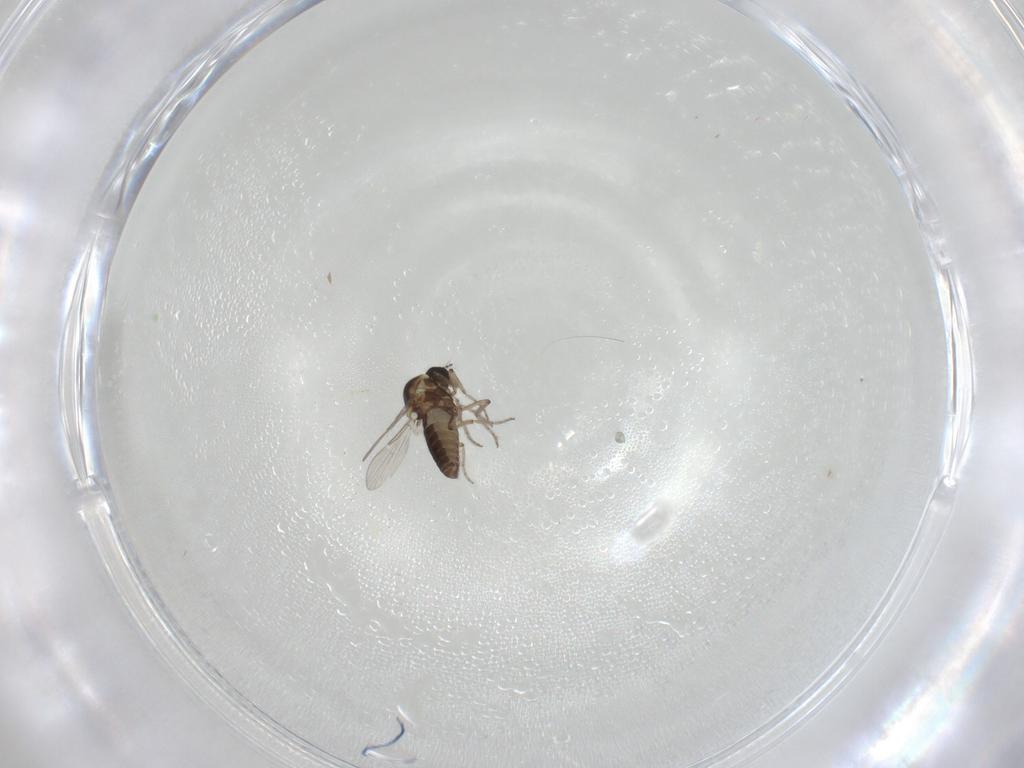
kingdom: Animalia
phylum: Arthropoda
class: Insecta
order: Diptera
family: Ceratopogonidae
